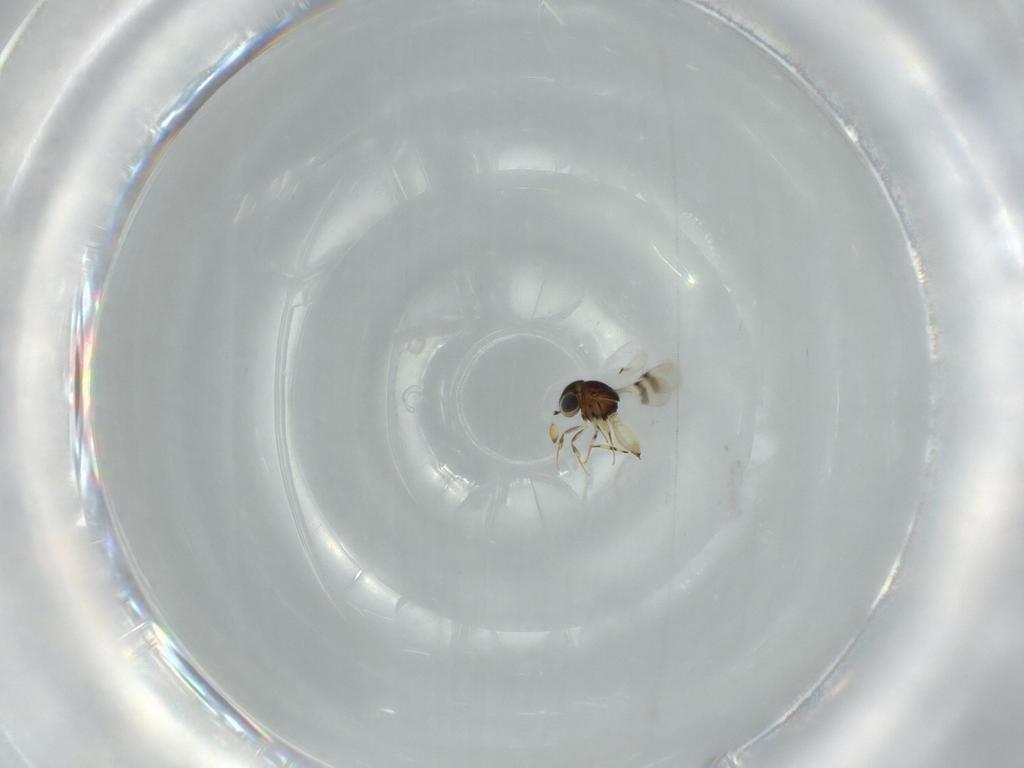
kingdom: Animalia
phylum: Arthropoda
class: Insecta
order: Hymenoptera
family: Scelionidae
